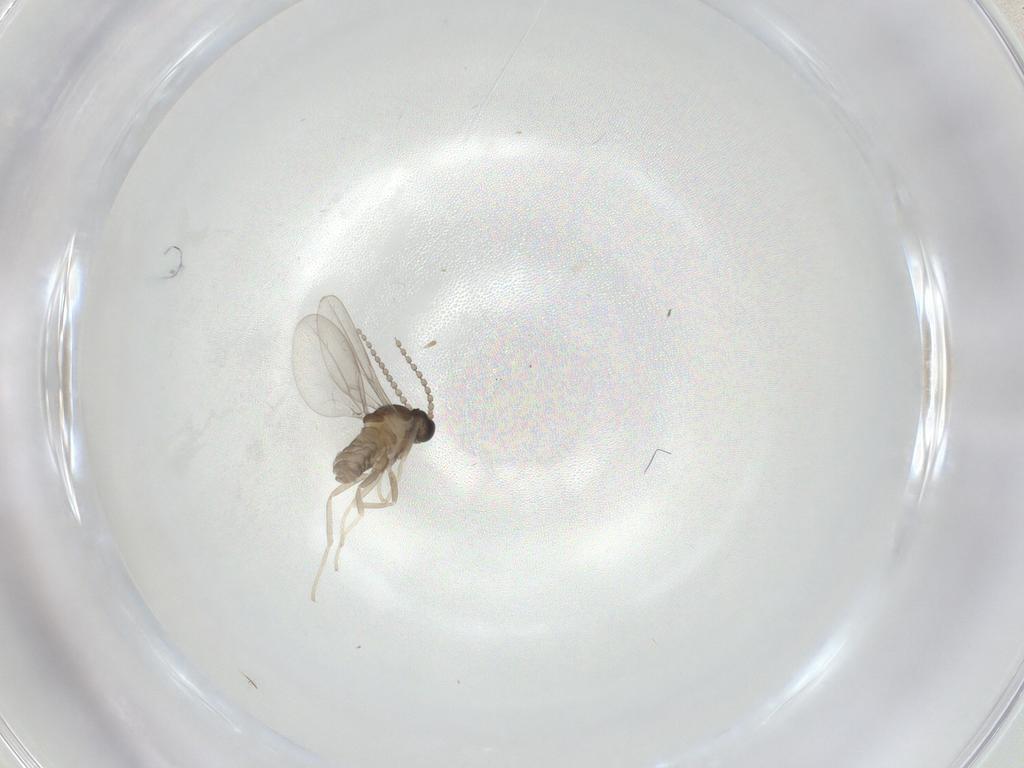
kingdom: Animalia
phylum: Arthropoda
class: Insecta
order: Diptera
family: Cecidomyiidae
